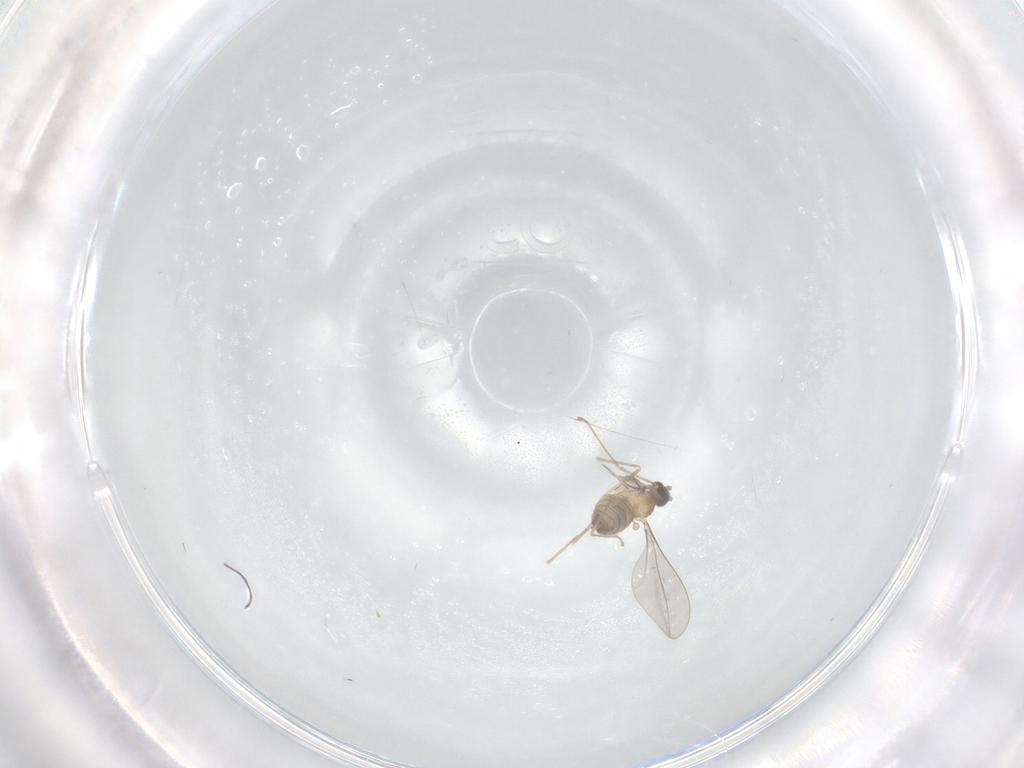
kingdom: Animalia
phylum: Arthropoda
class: Insecta
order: Diptera
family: Cecidomyiidae
